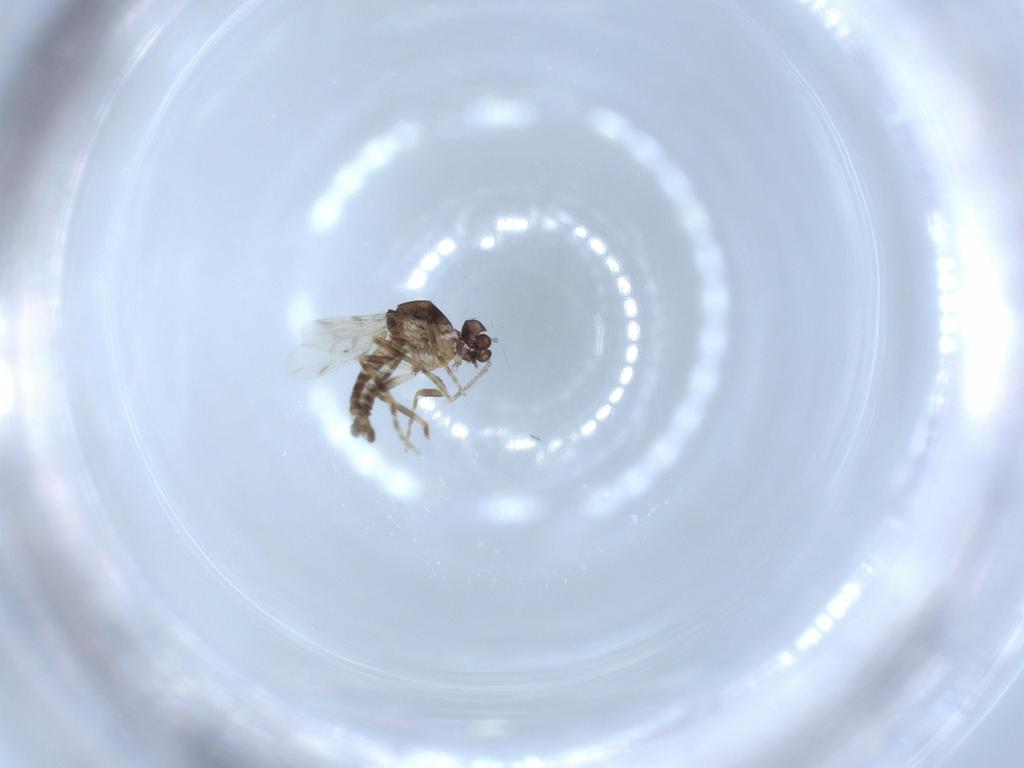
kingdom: Animalia
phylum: Arthropoda
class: Insecta
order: Diptera
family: Ceratopogonidae
